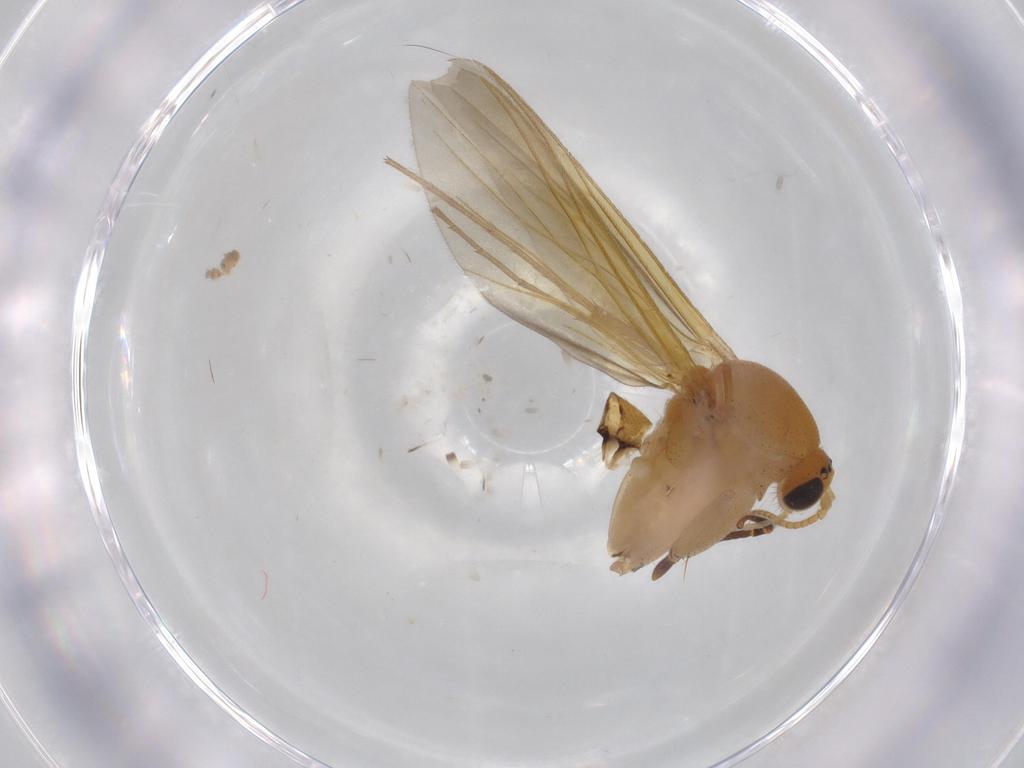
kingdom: Animalia
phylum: Arthropoda
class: Insecta
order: Diptera
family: Mycetophilidae
